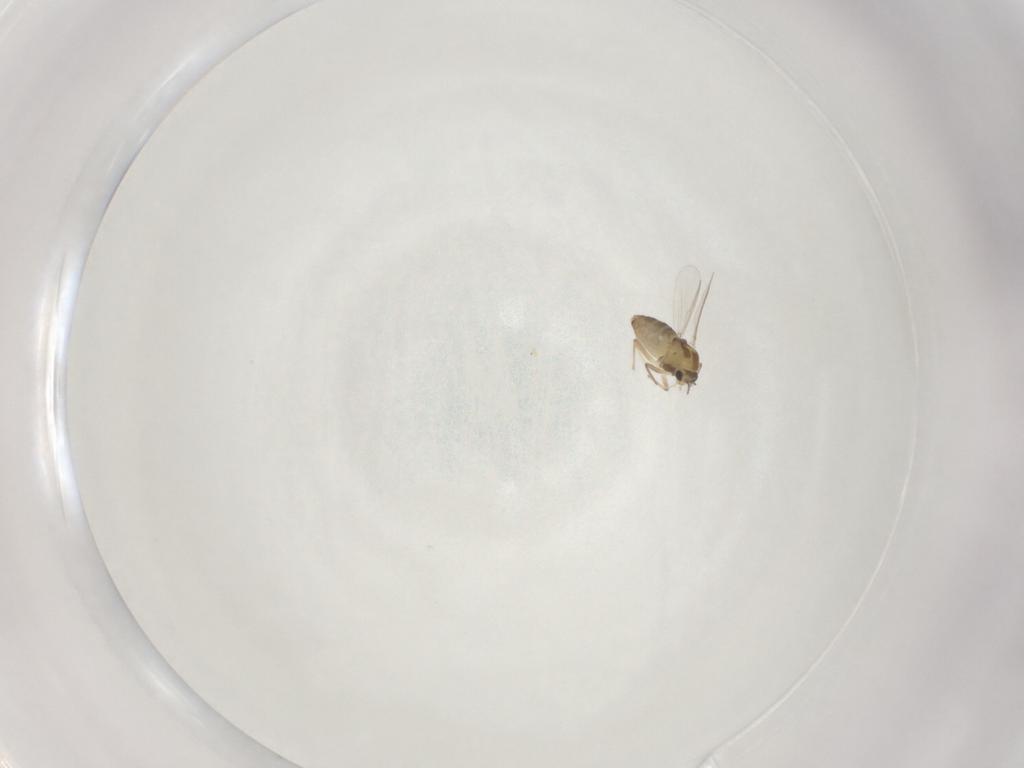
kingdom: Animalia
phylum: Arthropoda
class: Insecta
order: Diptera
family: Chironomidae
